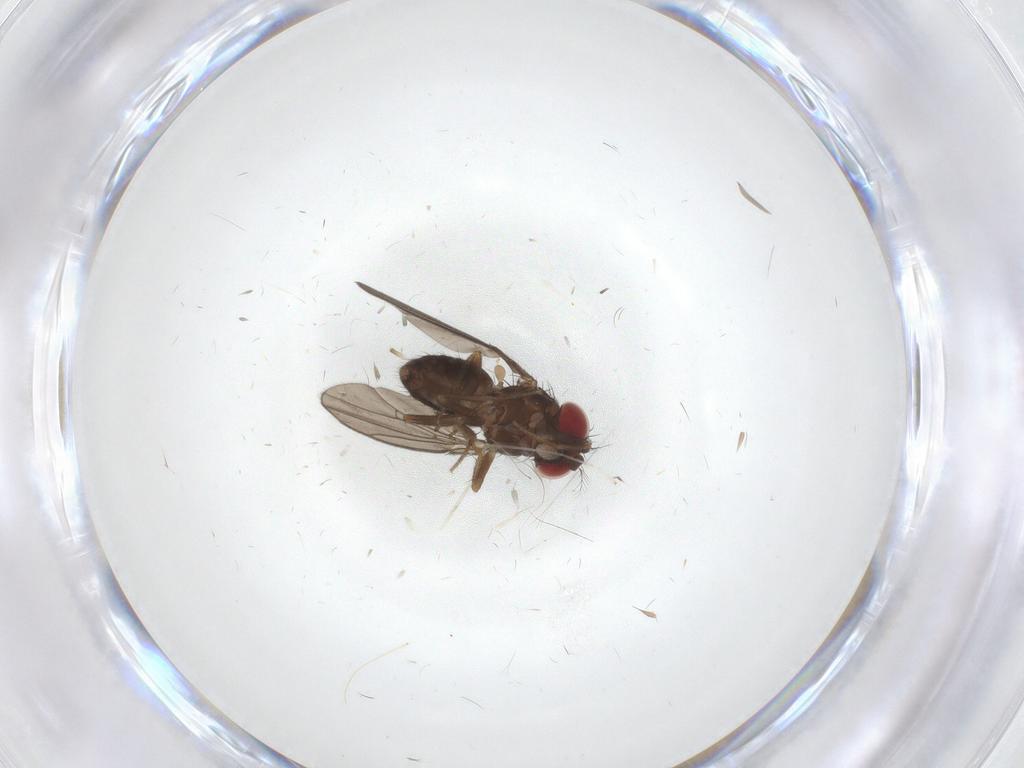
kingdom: Animalia
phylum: Arthropoda
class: Insecta
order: Diptera
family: Drosophilidae
